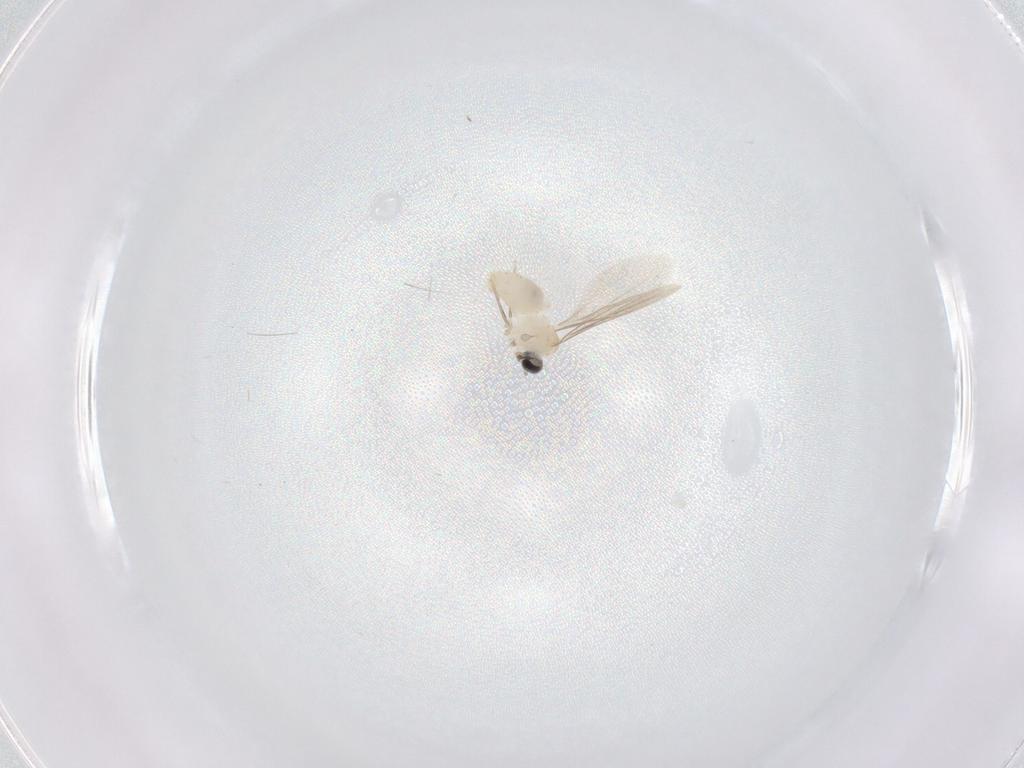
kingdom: Animalia
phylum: Arthropoda
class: Insecta
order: Diptera
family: Cecidomyiidae
